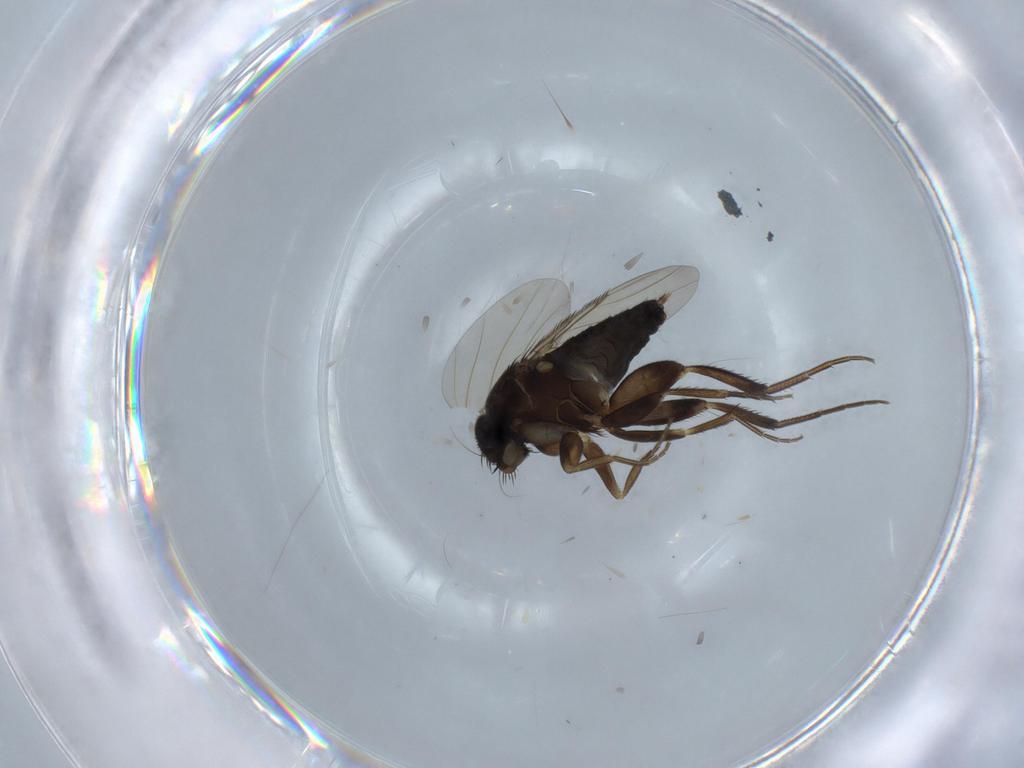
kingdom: Animalia
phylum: Arthropoda
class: Insecta
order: Diptera
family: Phoridae
